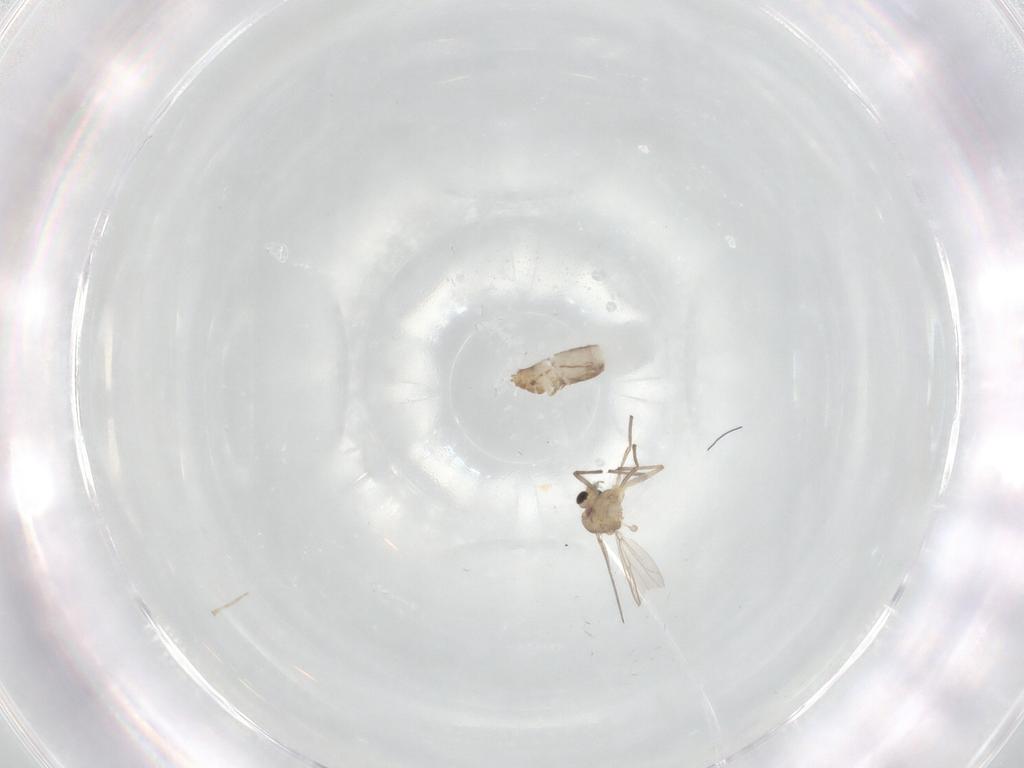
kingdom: Animalia
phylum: Arthropoda
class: Insecta
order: Diptera
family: Chironomidae
